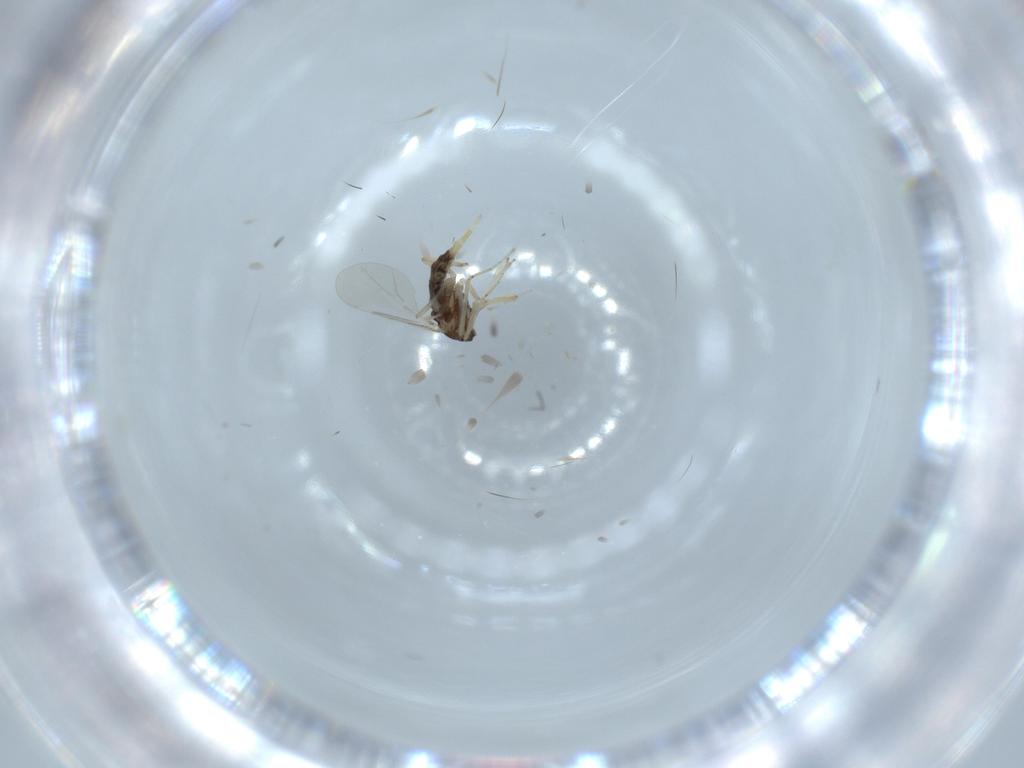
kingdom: Animalia
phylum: Arthropoda
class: Insecta
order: Diptera
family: Cecidomyiidae
